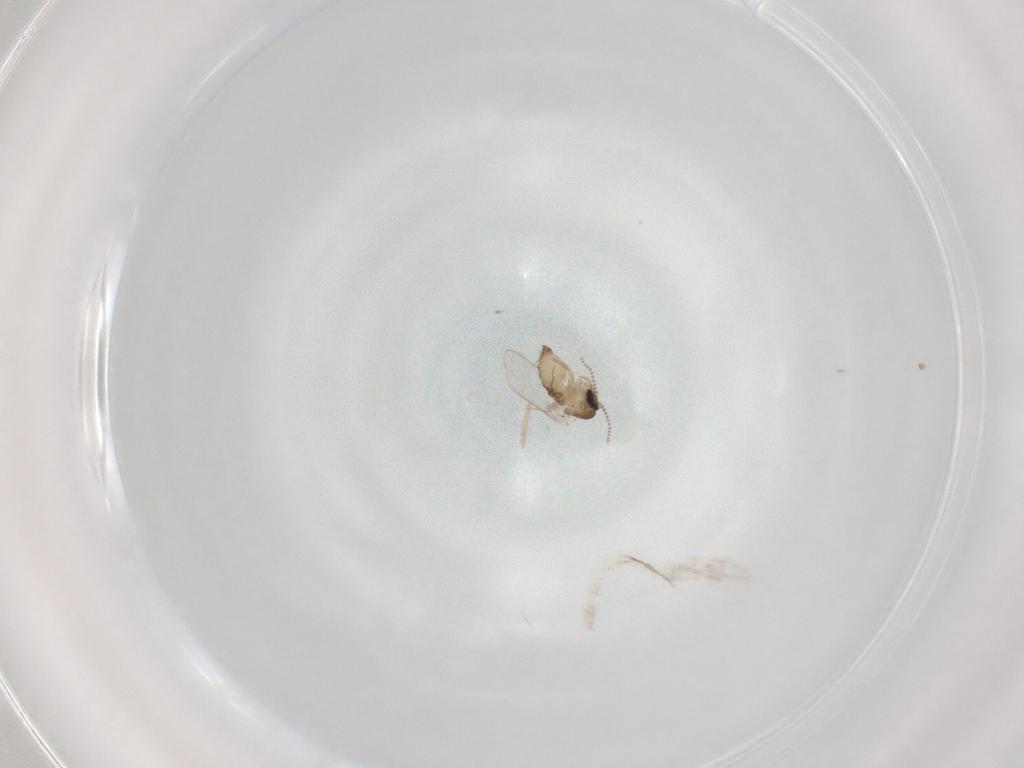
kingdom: Animalia
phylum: Arthropoda
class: Insecta
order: Diptera
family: Psychodidae
